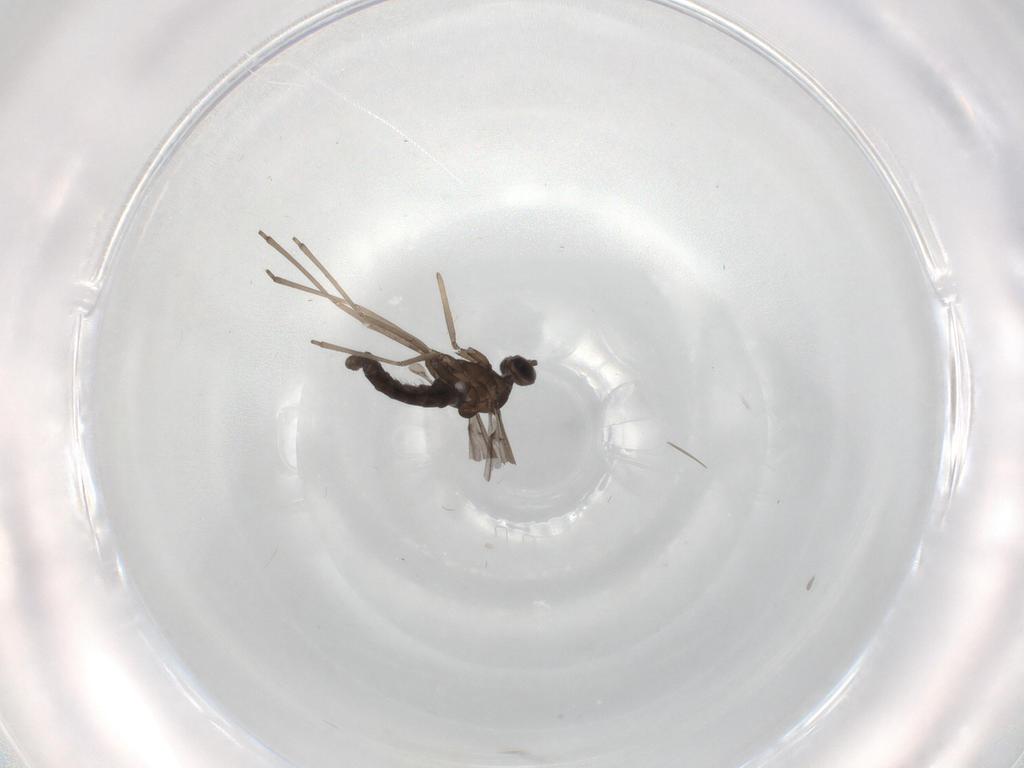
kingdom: Animalia
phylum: Arthropoda
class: Insecta
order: Diptera
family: Cecidomyiidae
